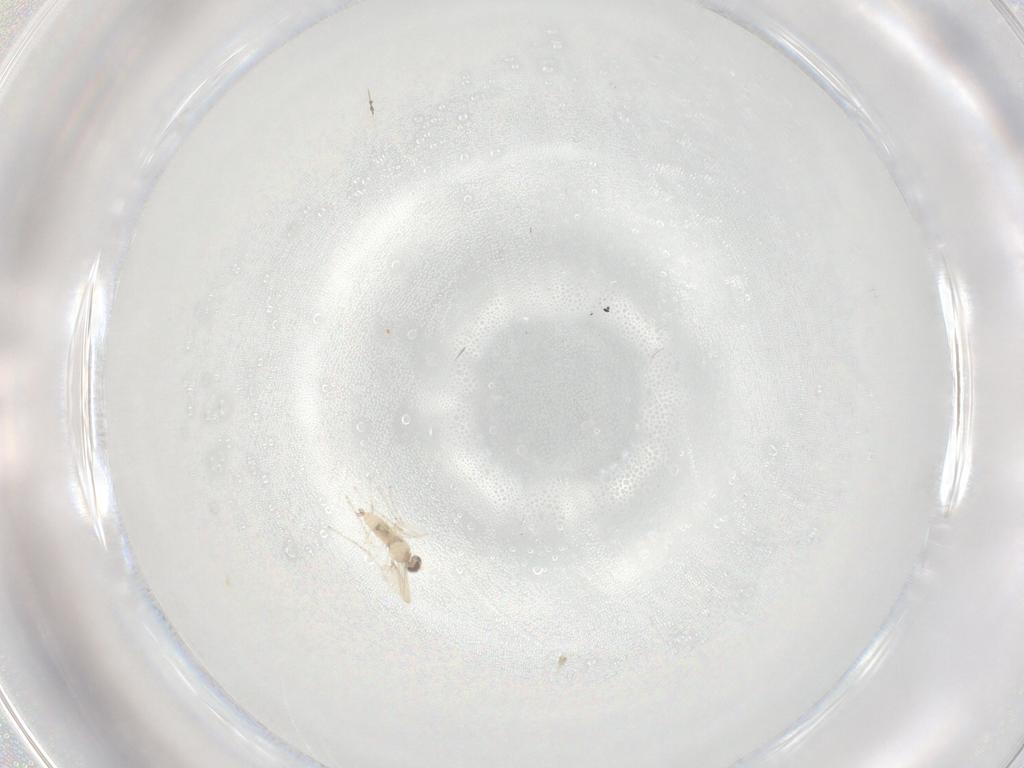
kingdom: Animalia
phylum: Arthropoda
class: Insecta
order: Diptera
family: Cecidomyiidae
